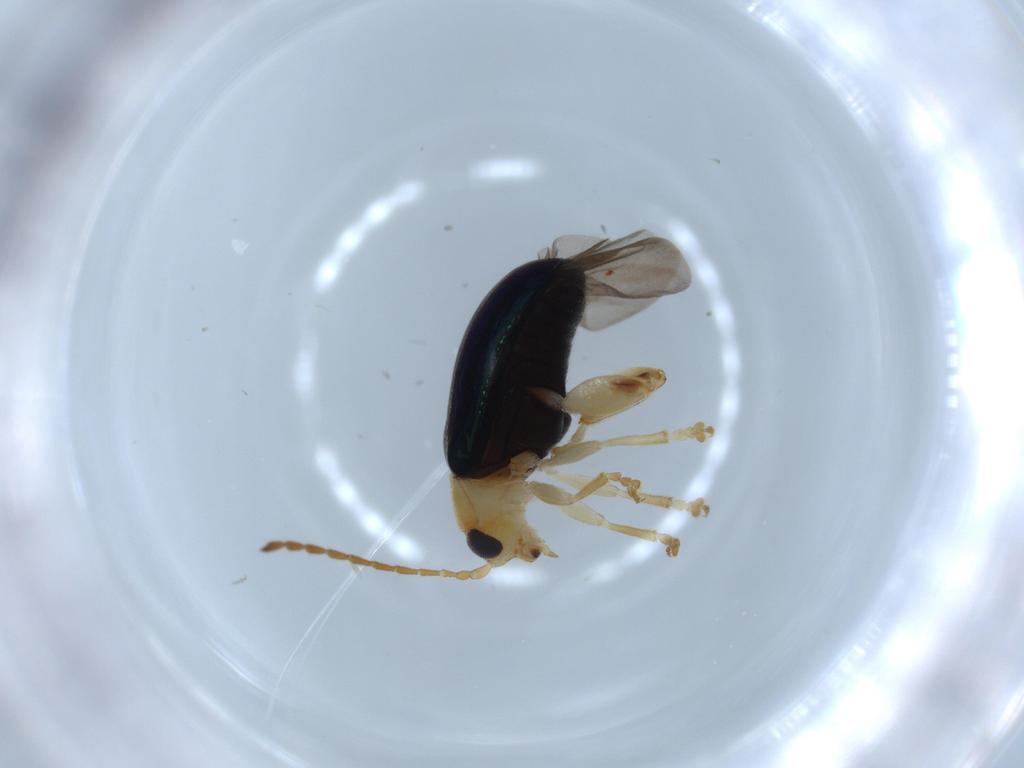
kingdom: Animalia
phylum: Arthropoda
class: Insecta
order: Coleoptera
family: Chrysomelidae
